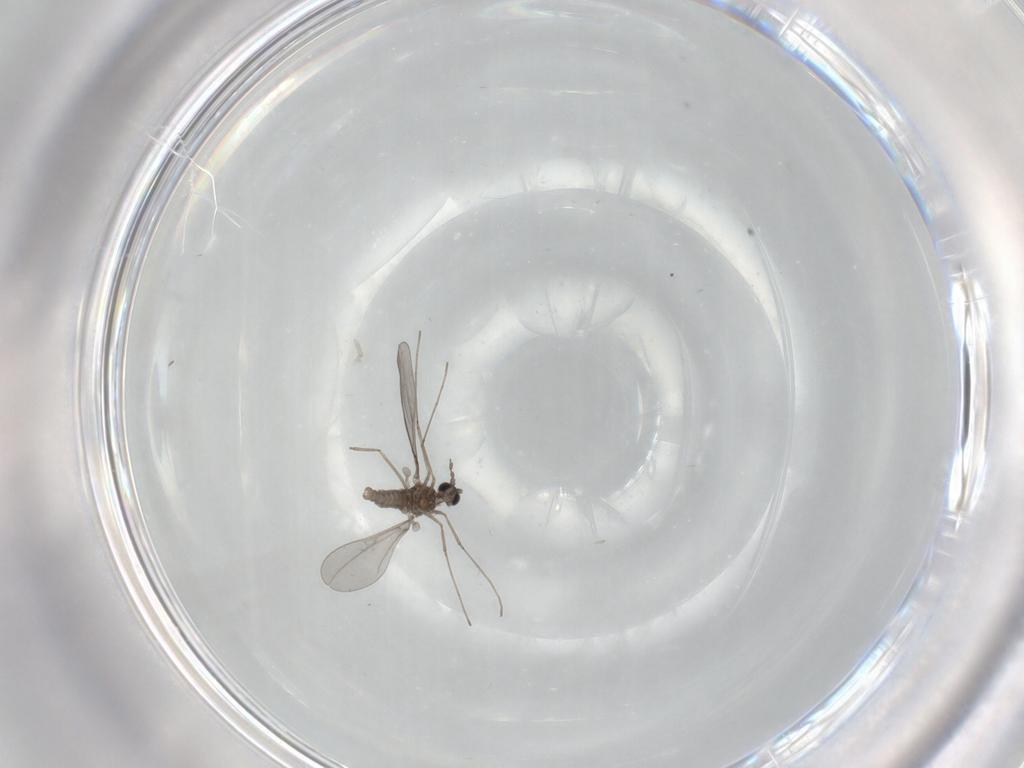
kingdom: Animalia
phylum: Arthropoda
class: Insecta
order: Diptera
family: Cecidomyiidae
